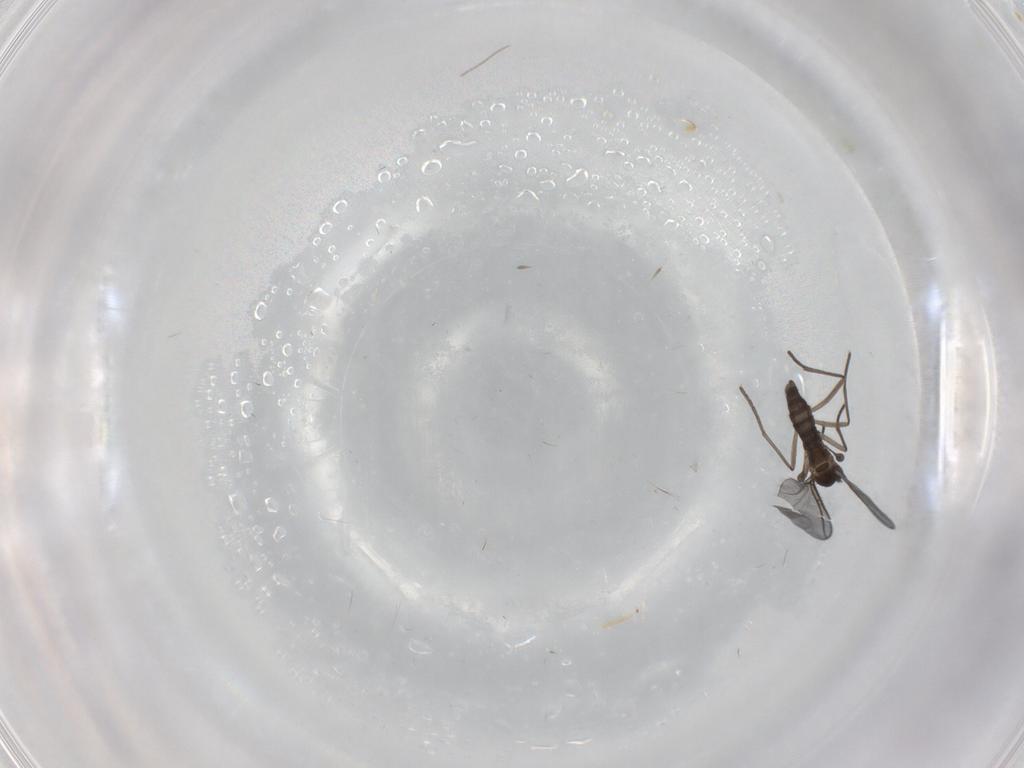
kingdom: Animalia
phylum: Arthropoda
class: Insecta
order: Diptera
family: Cecidomyiidae
